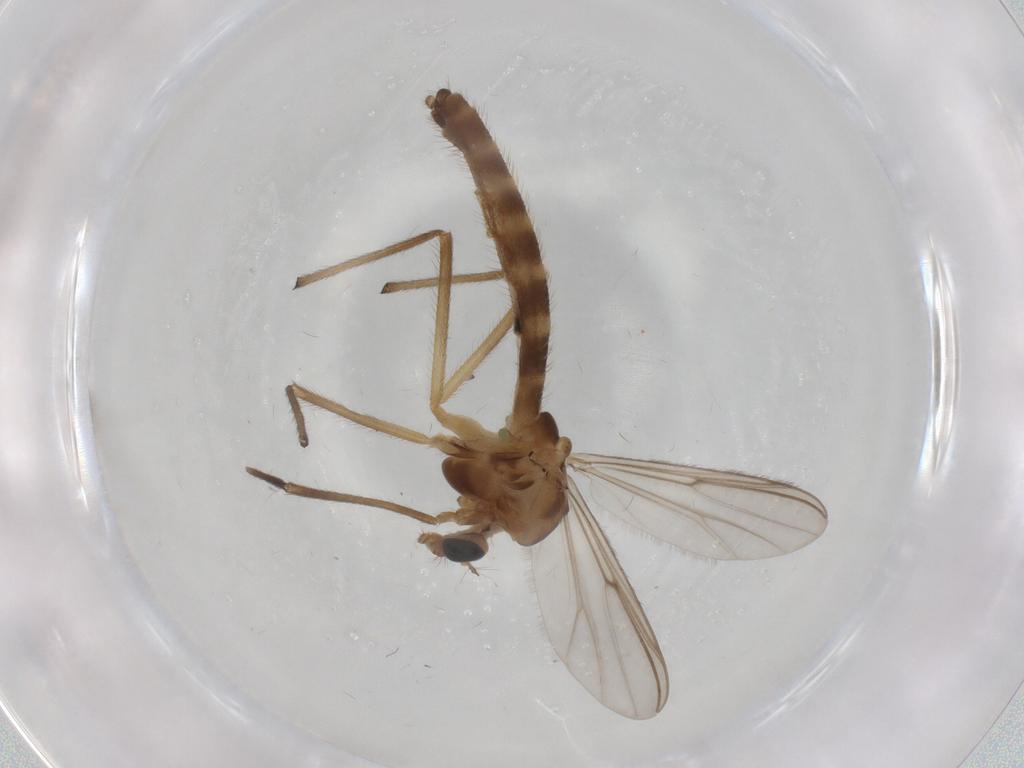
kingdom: Animalia
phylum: Arthropoda
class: Insecta
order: Diptera
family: Cecidomyiidae
